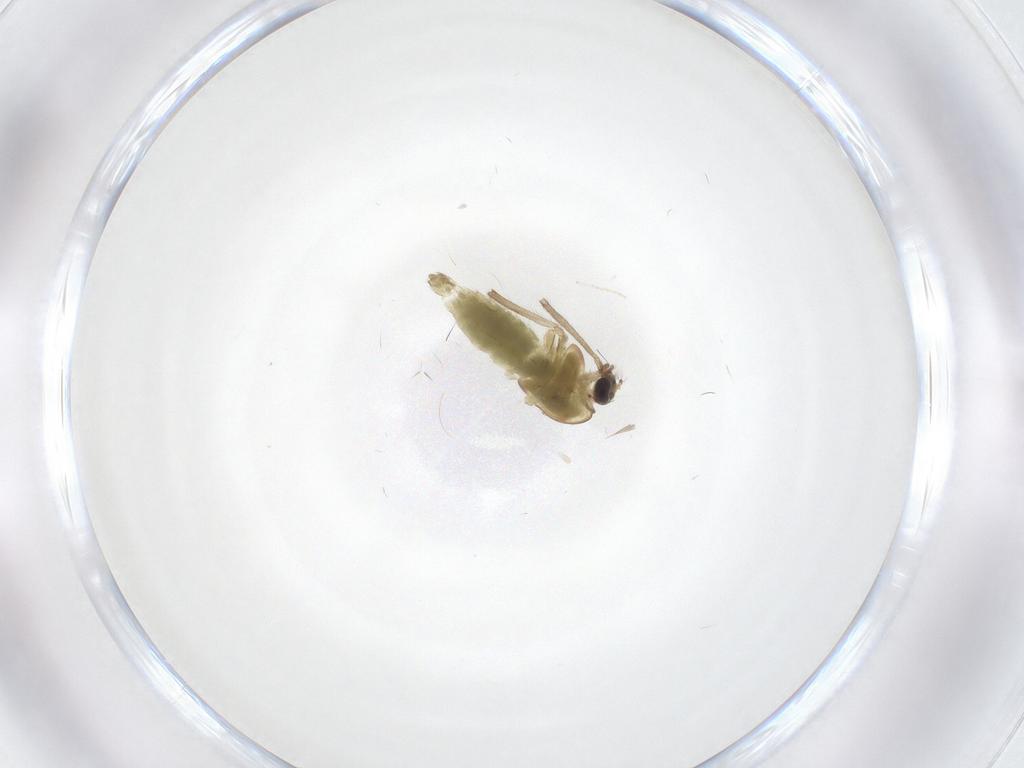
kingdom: Animalia
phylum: Arthropoda
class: Insecta
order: Diptera
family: Chironomidae
